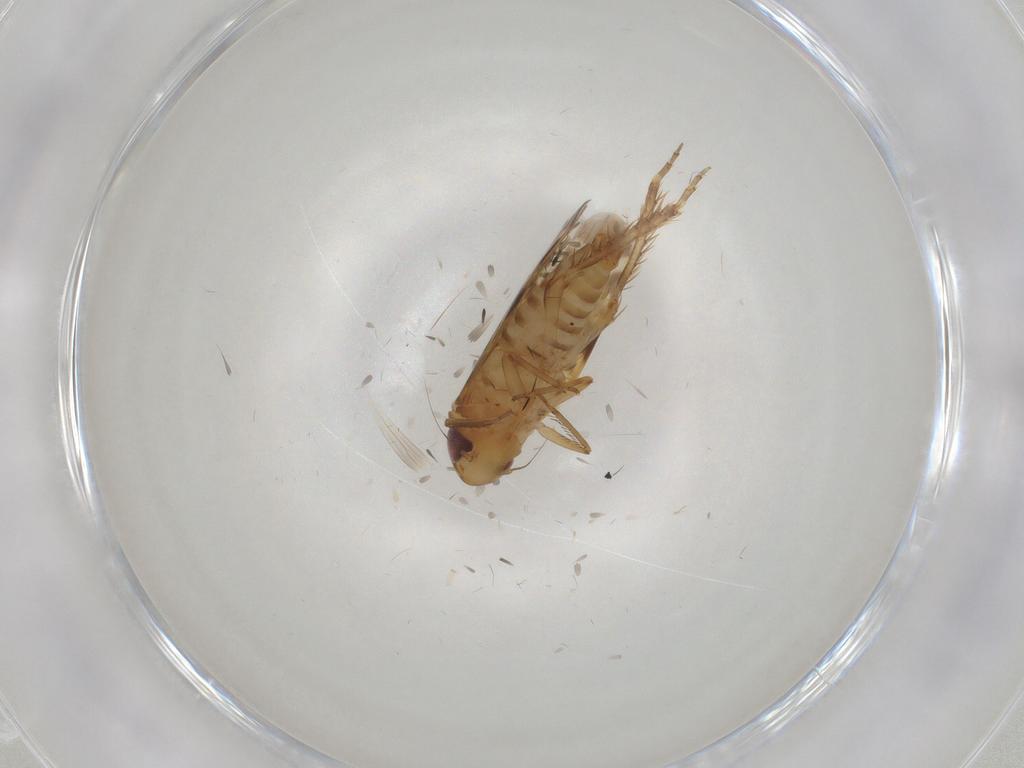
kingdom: Animalia
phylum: Arthropoda
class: Insecta
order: Hemiptera
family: Cicadellidae
